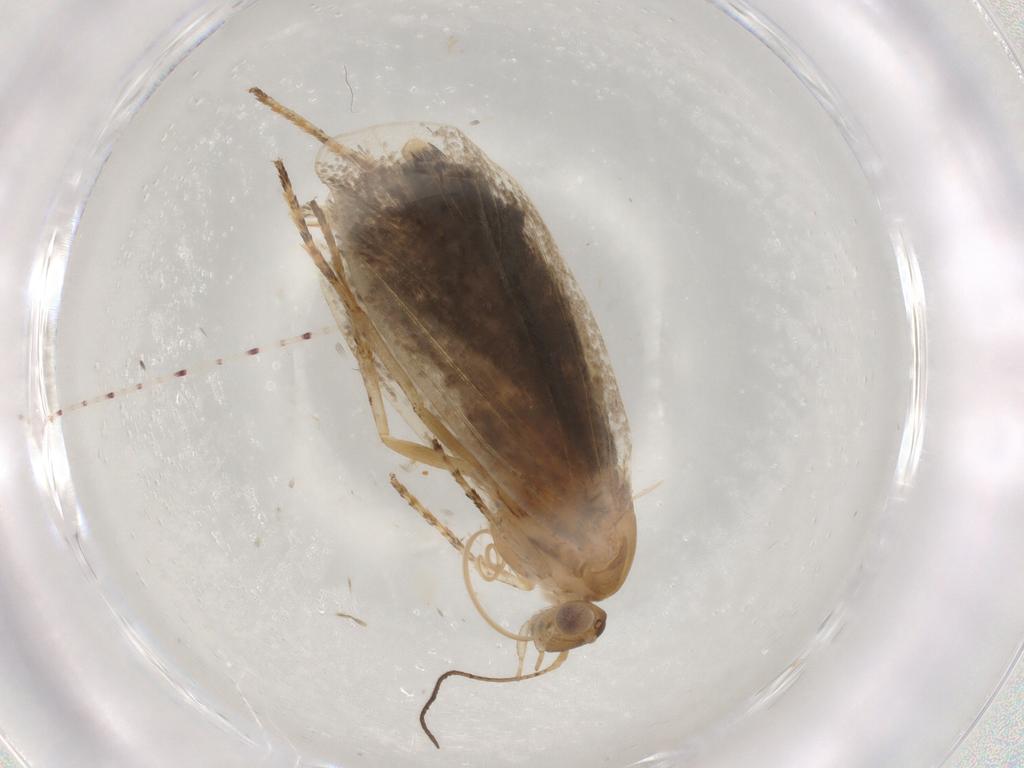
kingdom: Animalia
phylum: Arthropoda
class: Insecta
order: Lepidoptera
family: Choreutidae
